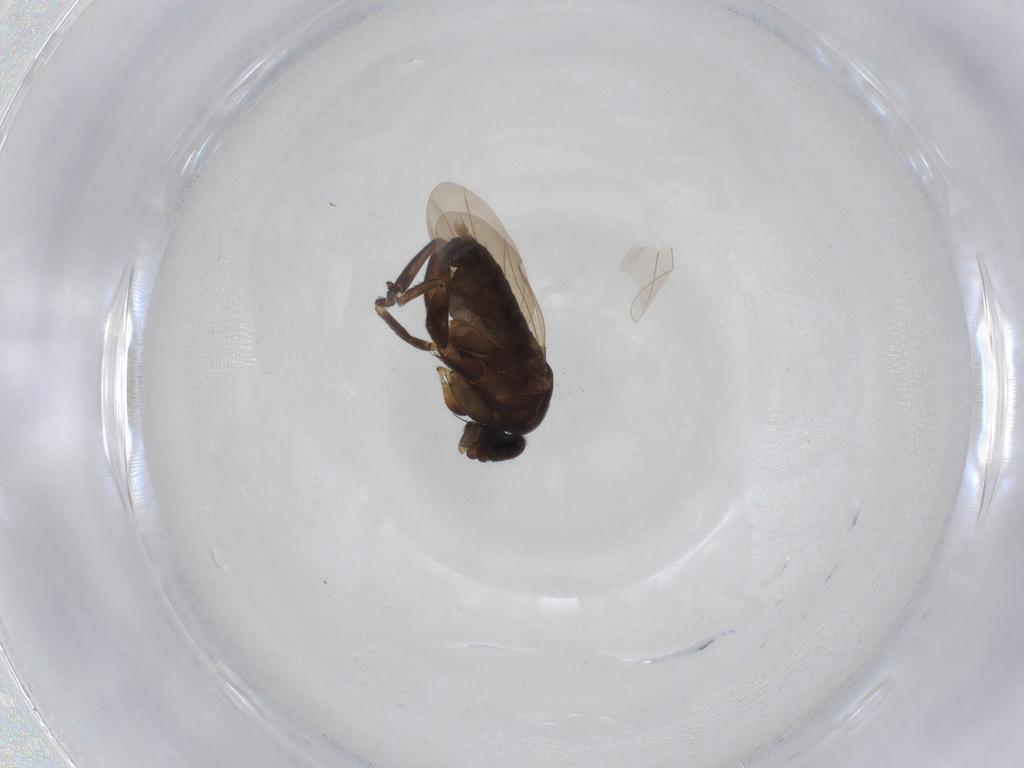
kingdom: Animalia
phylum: Arthropoda
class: Insecta
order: Diptera
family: Phoridae
